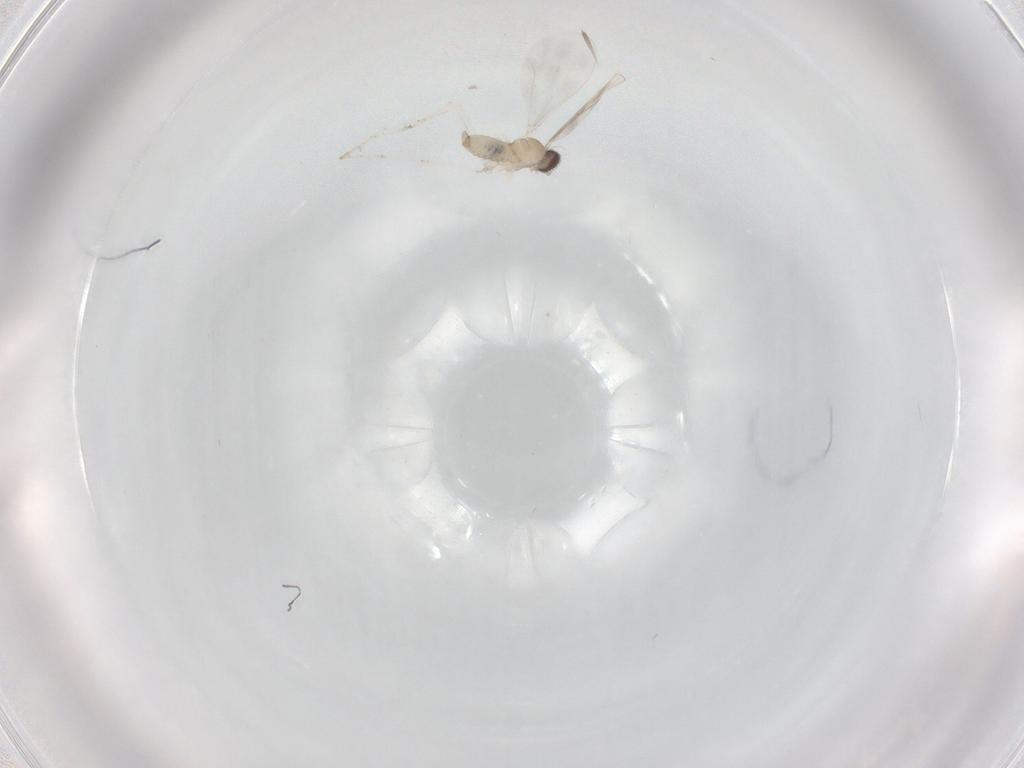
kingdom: Animalia
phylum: Arthropoda
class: Insecta
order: Diptera
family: Cecidomyiidae
